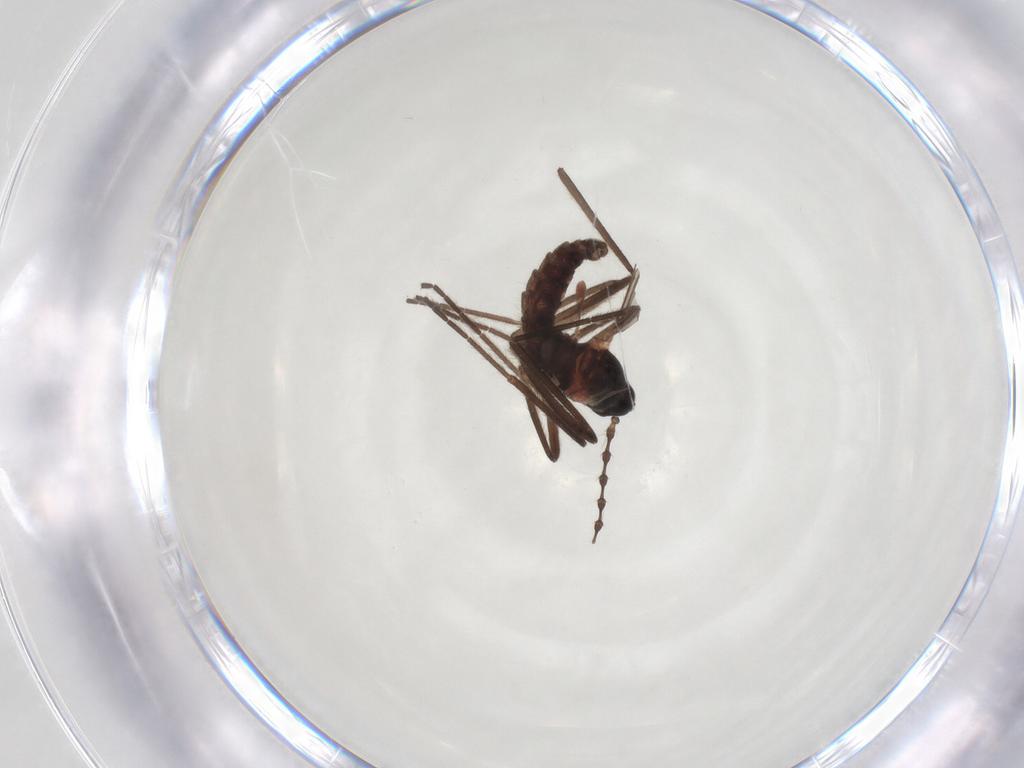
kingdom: Animalia
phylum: Arthropoda
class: Insecta
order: Diptera
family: Cecidomyiidae
